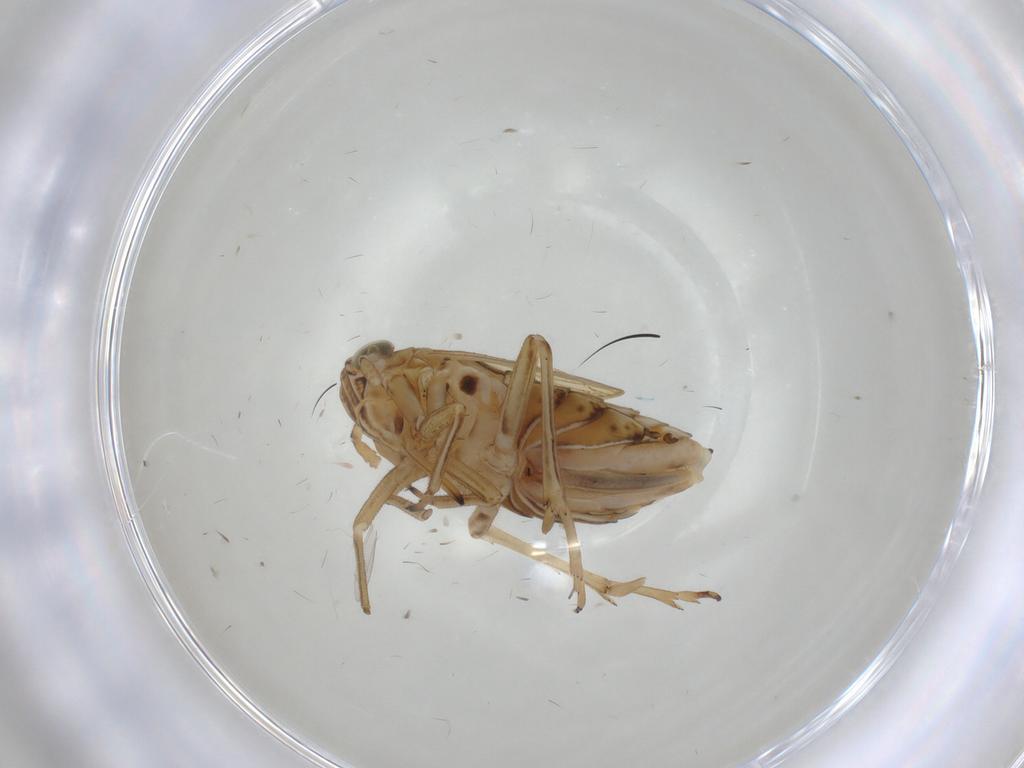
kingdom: Animalia
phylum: Arthropoda
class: Insecta
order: Hemiptera
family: Delphacidae
